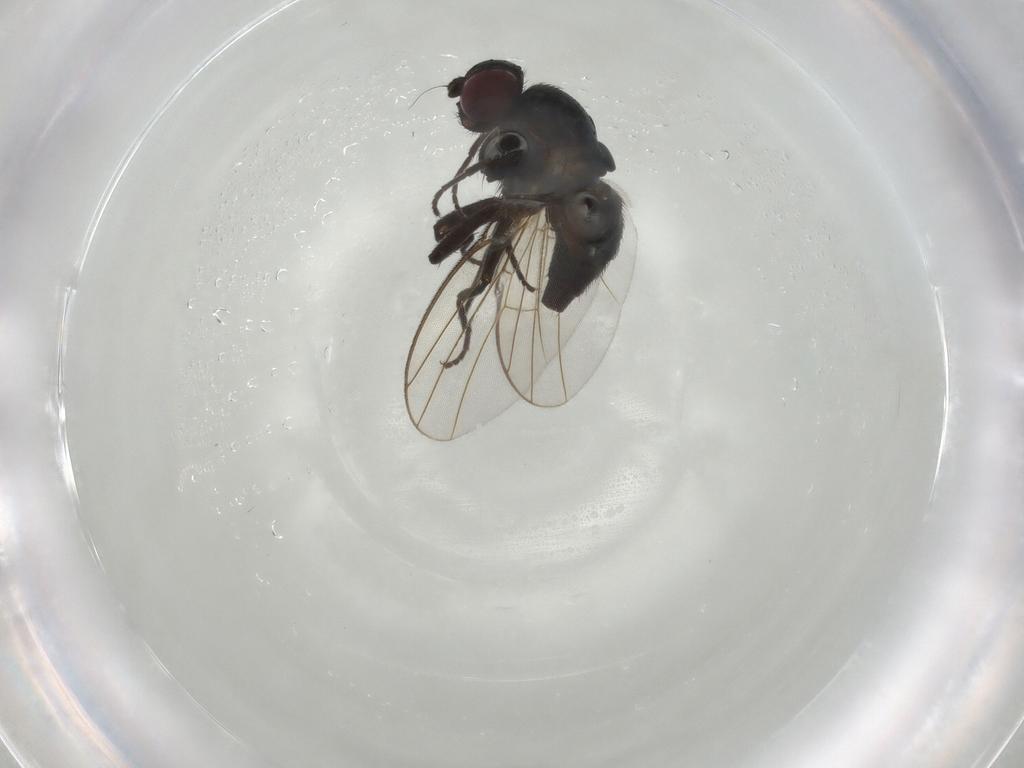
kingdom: Animalia
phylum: Arthropoda
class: Insecta
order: Diptera
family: Agromyzidae
